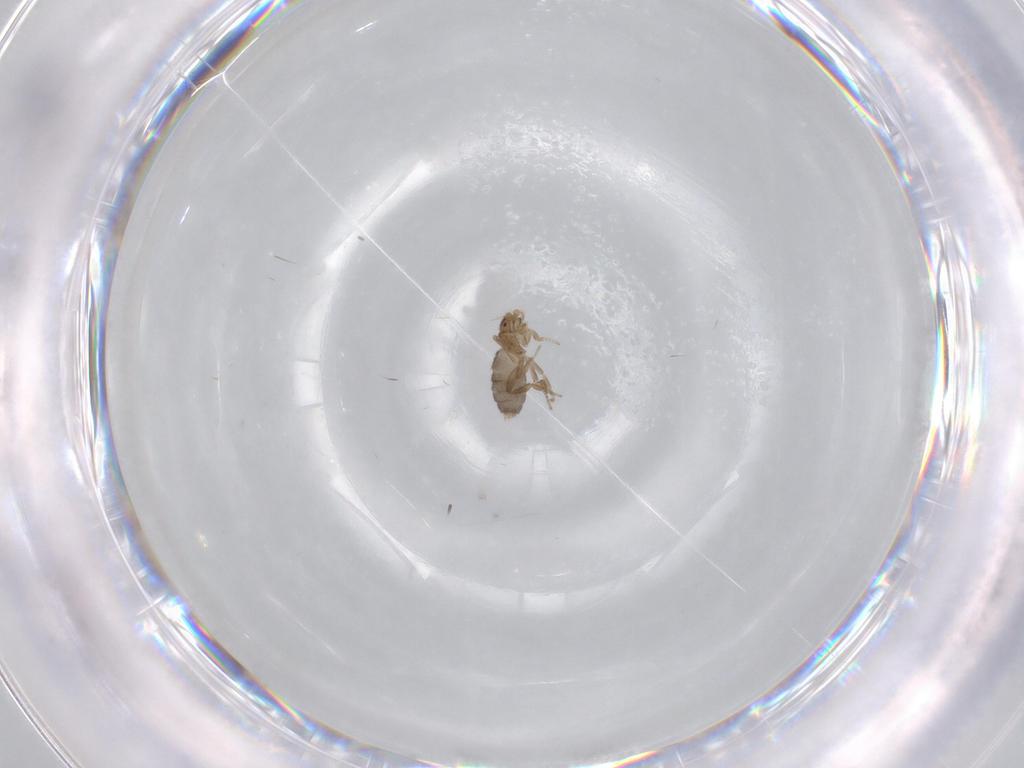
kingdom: Animalia
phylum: Arthropoda
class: Insecta
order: Diptera
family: Phoridae
